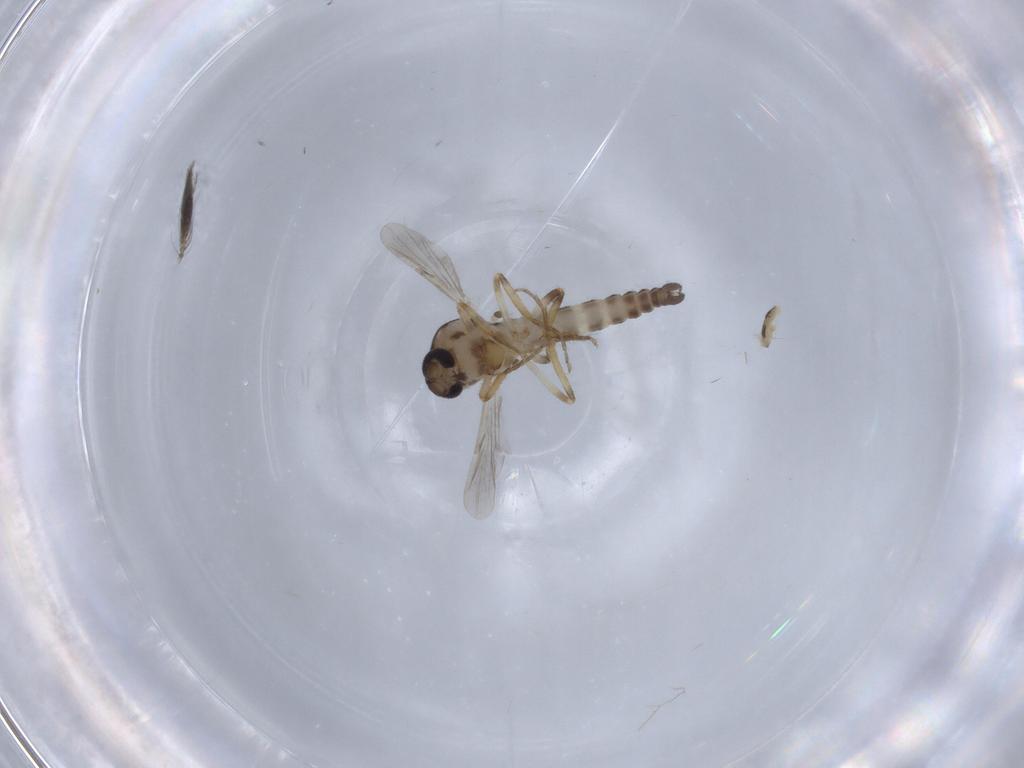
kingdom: Animalia
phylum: Arthropoda
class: Insecta
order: Diptera
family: Ceratopogonidae
